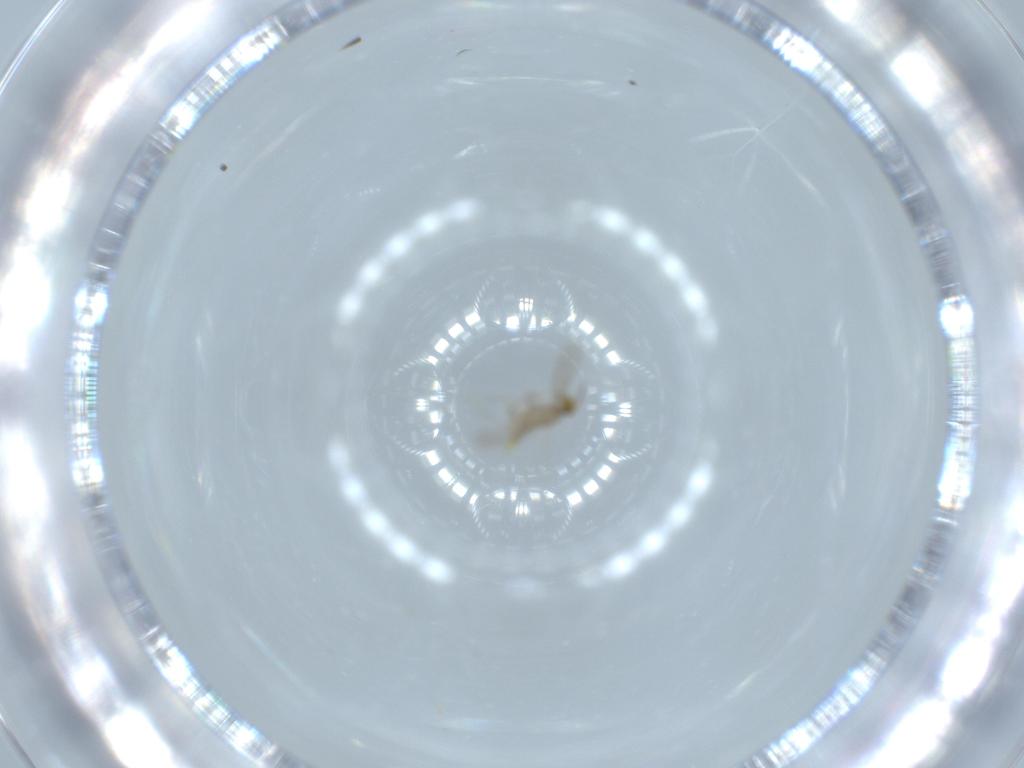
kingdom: Animalia
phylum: Arthropoda
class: Insecta
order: Hymenoptera
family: Aphelinidae
